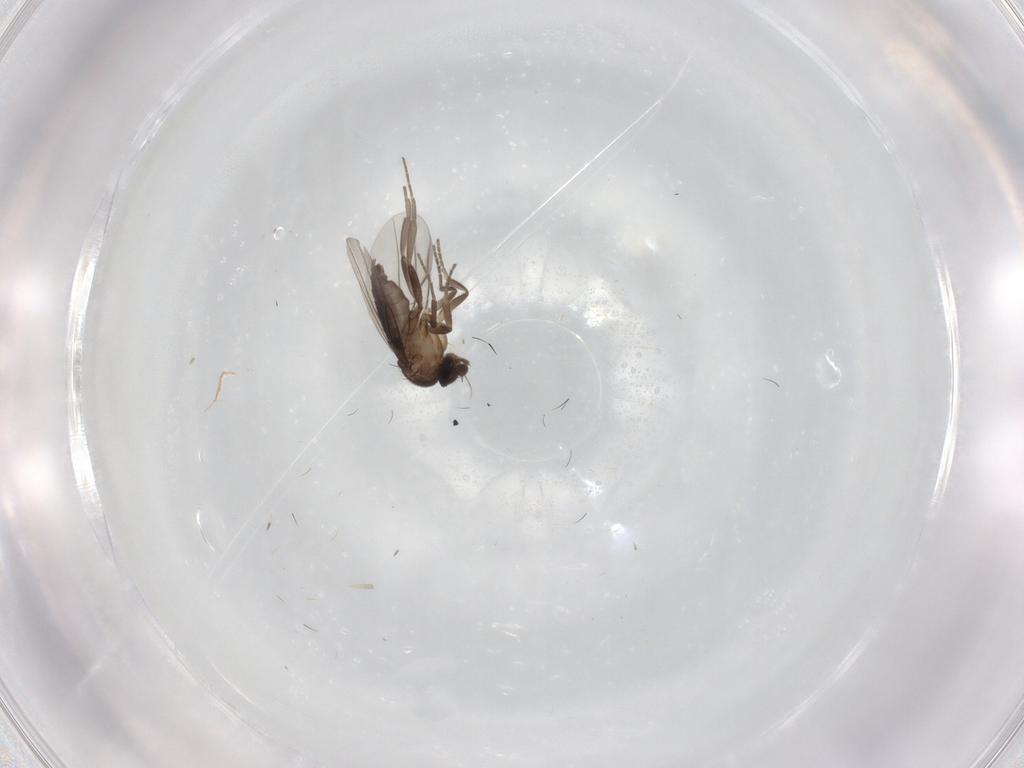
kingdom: Animalia
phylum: Arthropoda
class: Insecta
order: Diptera
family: Phoridae
